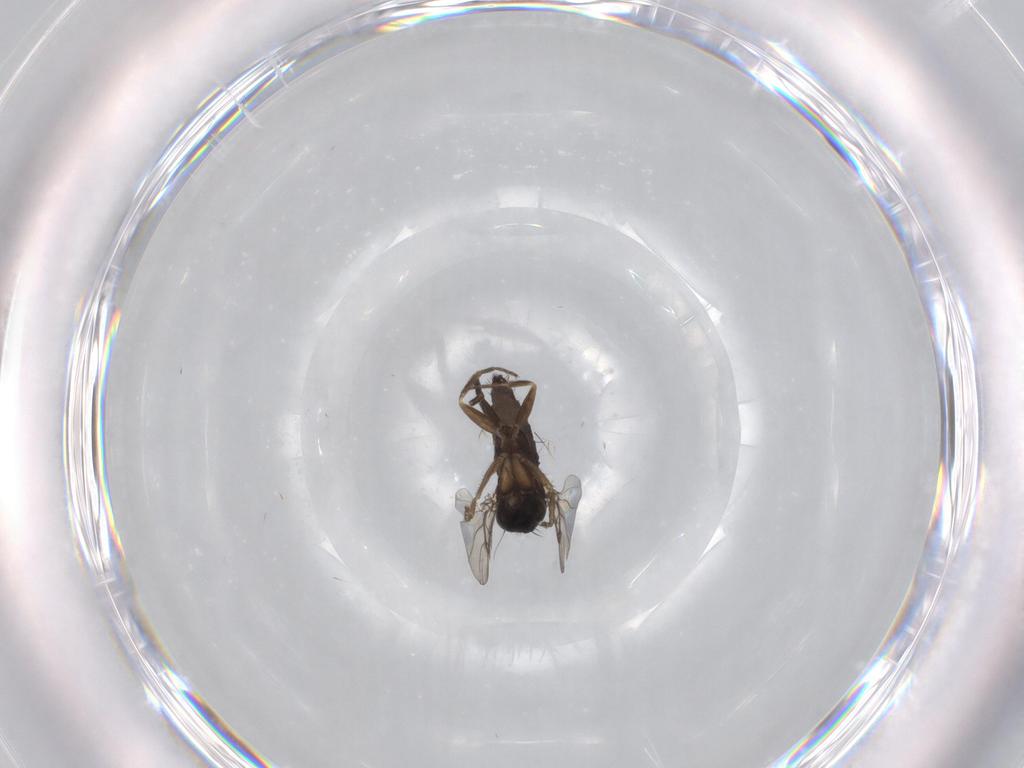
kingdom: Animalia
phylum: Arthropoda
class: Insecta
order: Diptera
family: Phoridae
